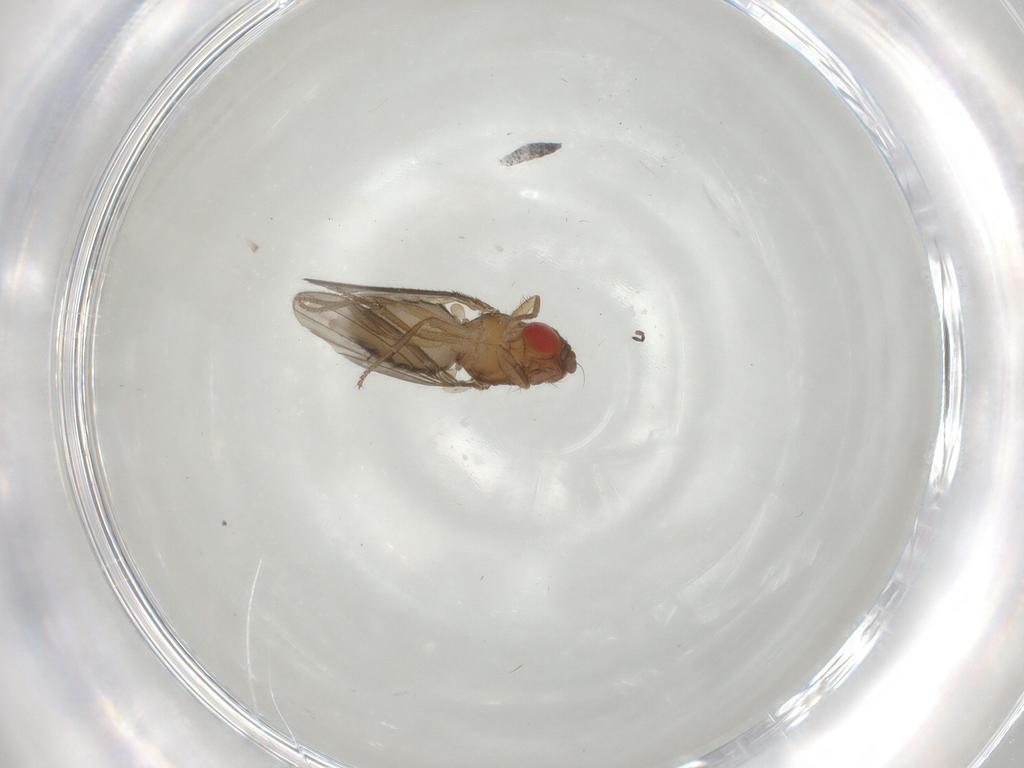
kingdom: Animalia
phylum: Arthropoda
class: Insecta
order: Diptera
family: Drosophilidae
